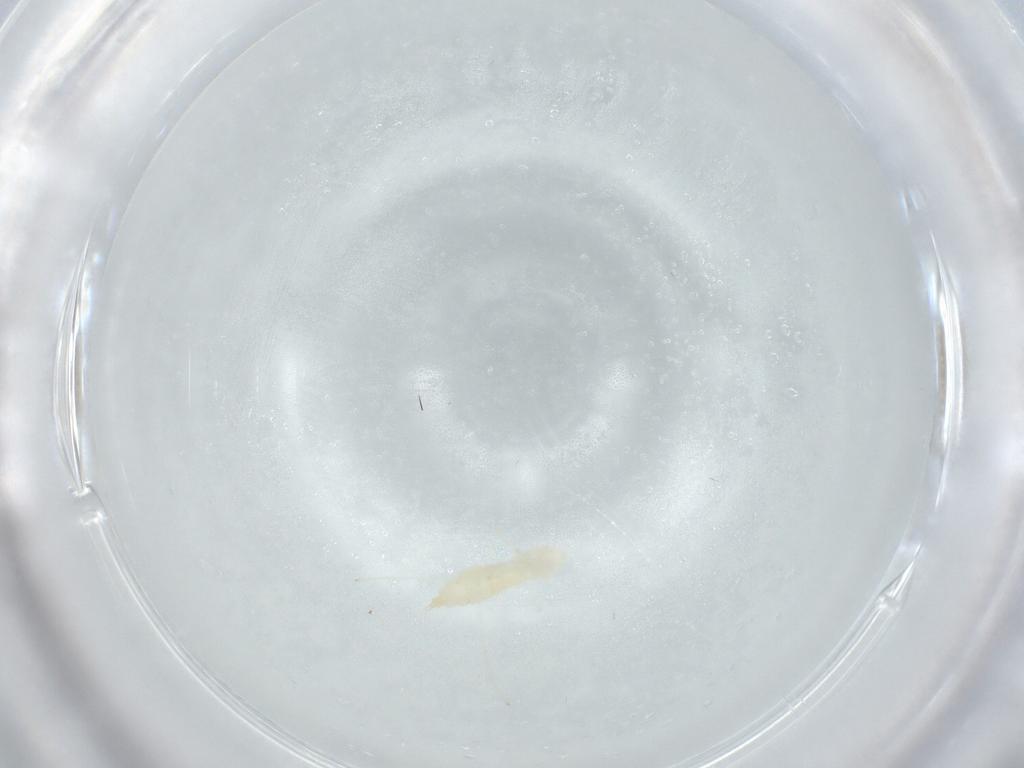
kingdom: Animalia
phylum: Arthropoda
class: Insecta
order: Diptera
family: Cecidomyiidae
